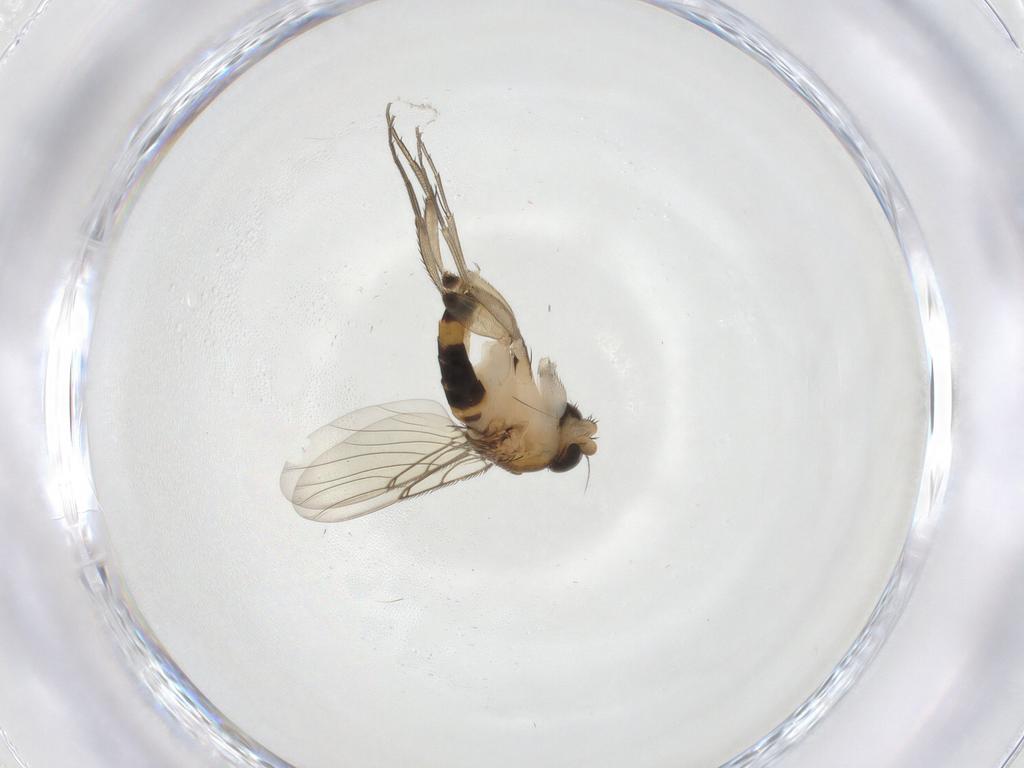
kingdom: Animalia
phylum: Arthropoda
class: Insecta
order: Diptera
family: Phoridae
